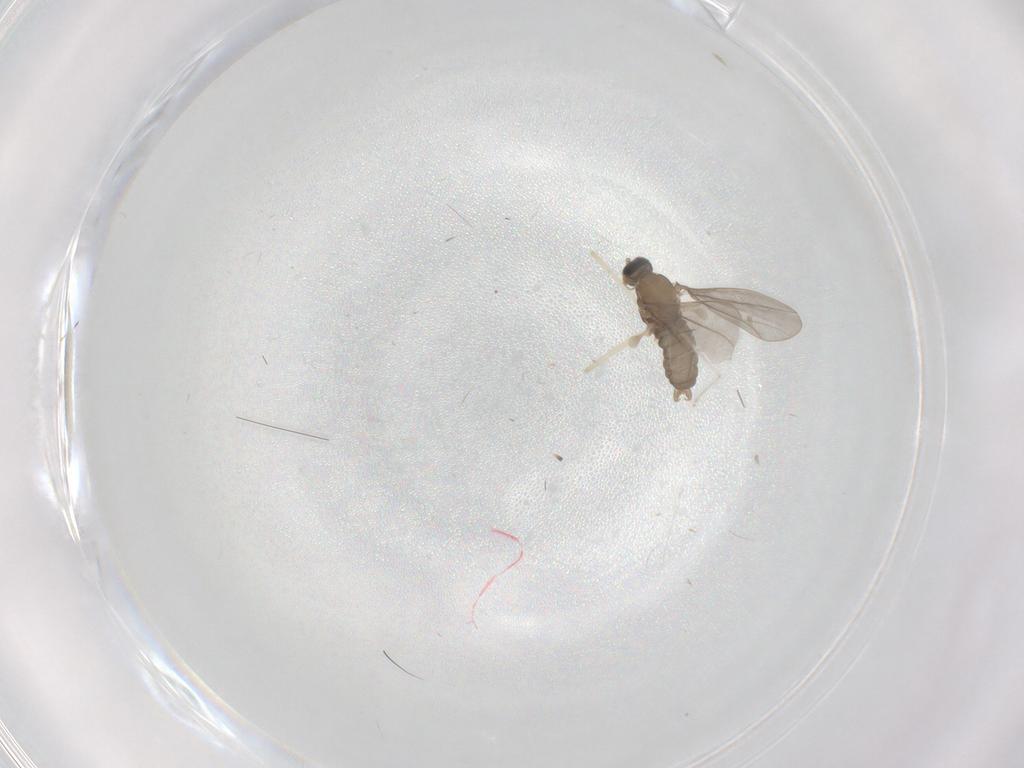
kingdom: Animalia
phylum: Arthropoda
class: Insecta
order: Diptera
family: Cecidomyiidae
